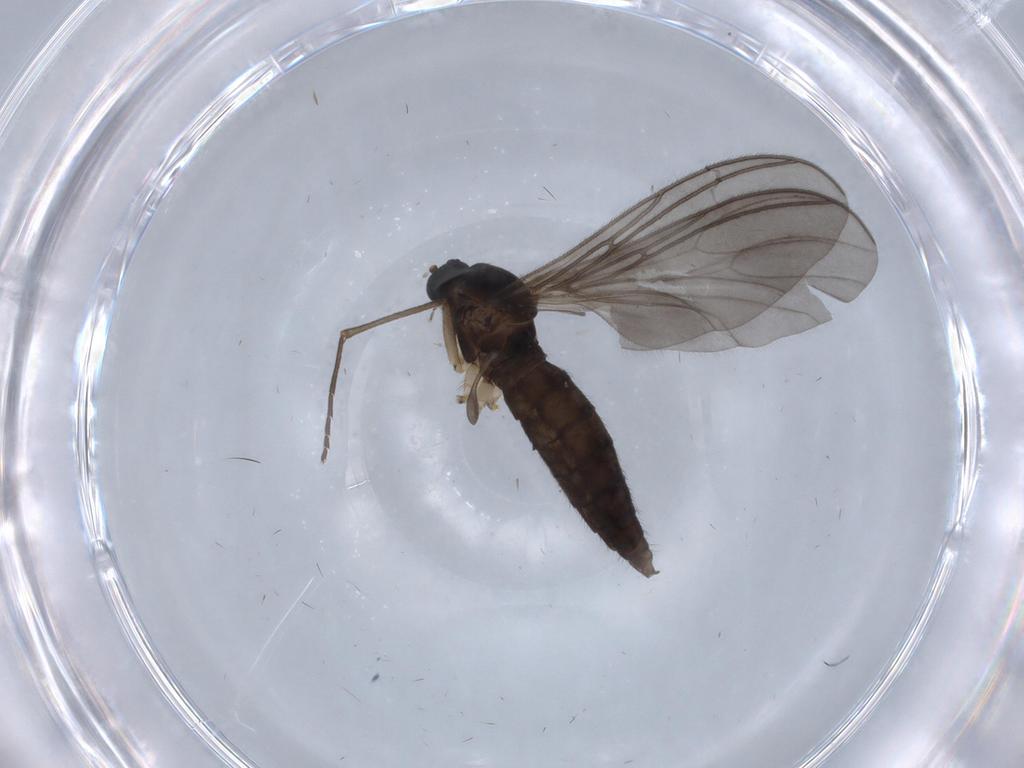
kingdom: Animalia
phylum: Arthropoda
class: Insecta
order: Diptera
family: Sciaridae
